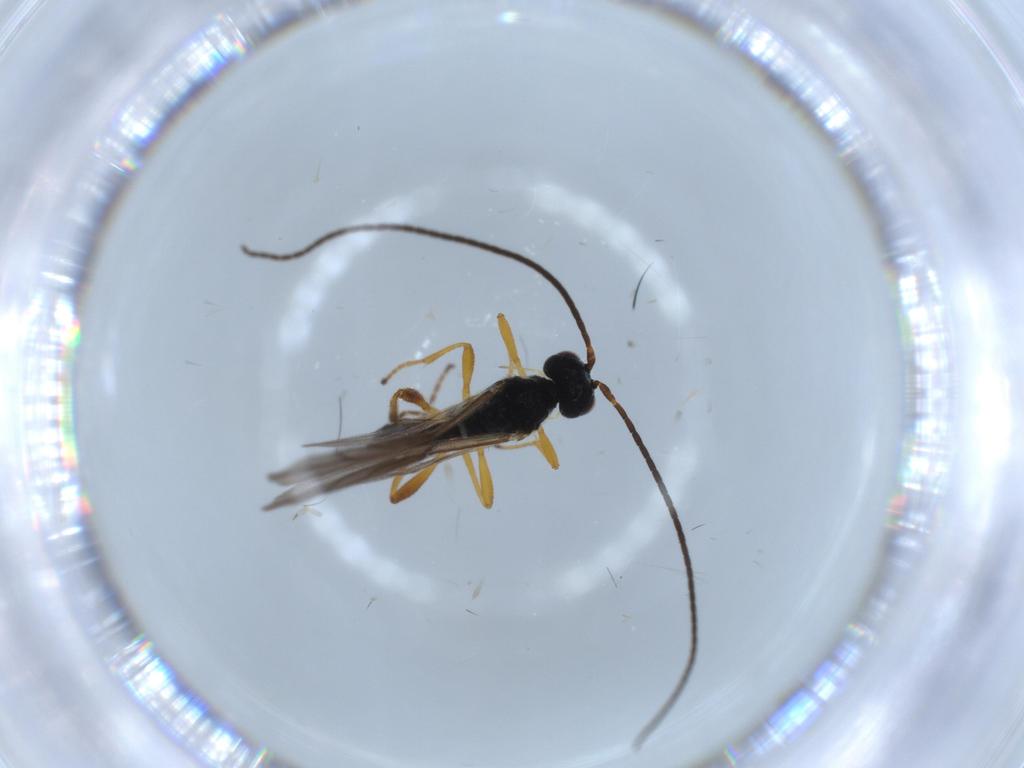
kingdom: Animalia
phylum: Arthropoda
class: Insecta
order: Hymenoptera
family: Braconidae
